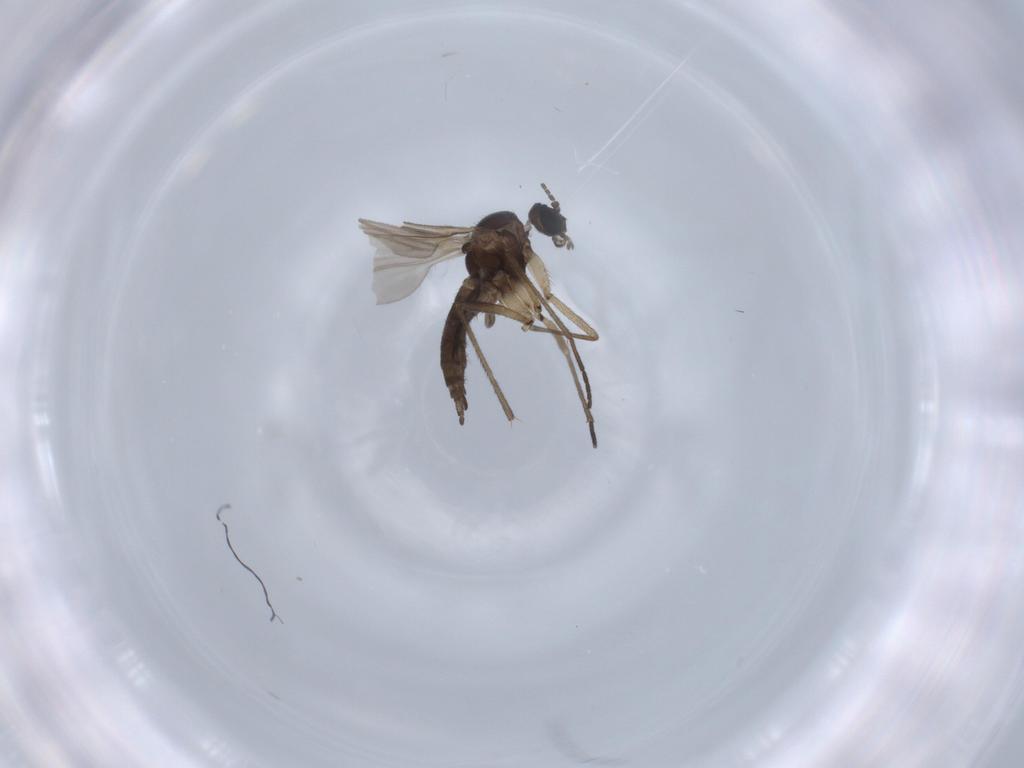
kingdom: Animalia
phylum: Arthropoda
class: Insecta
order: Diptera
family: Sciaridae
